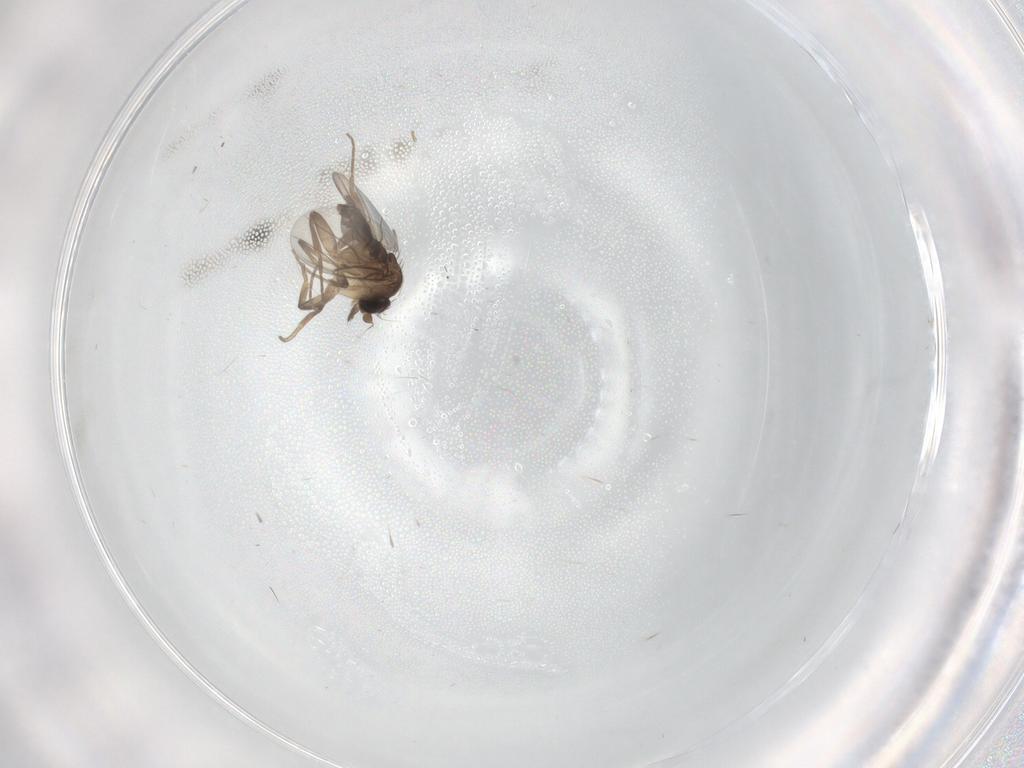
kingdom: Animalia
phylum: Arthropoda
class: Insecta
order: Diptera
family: Phoridae
